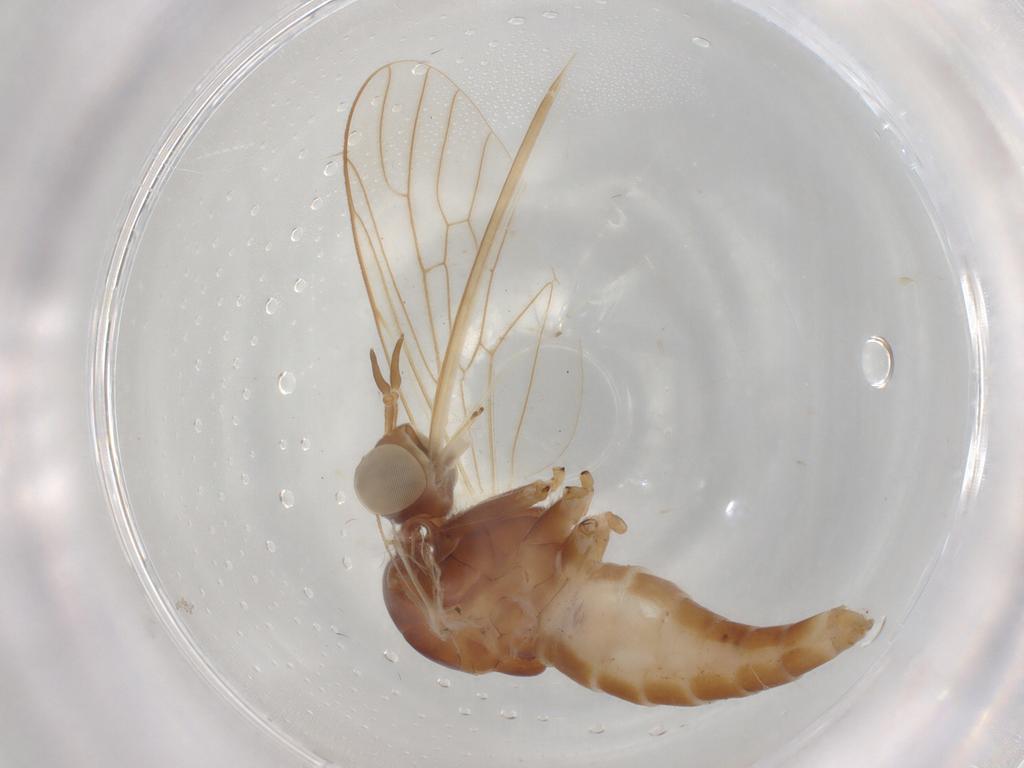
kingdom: Animalia
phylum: Arthropoda
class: Insecta
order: Diptera
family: Bombyliidae
